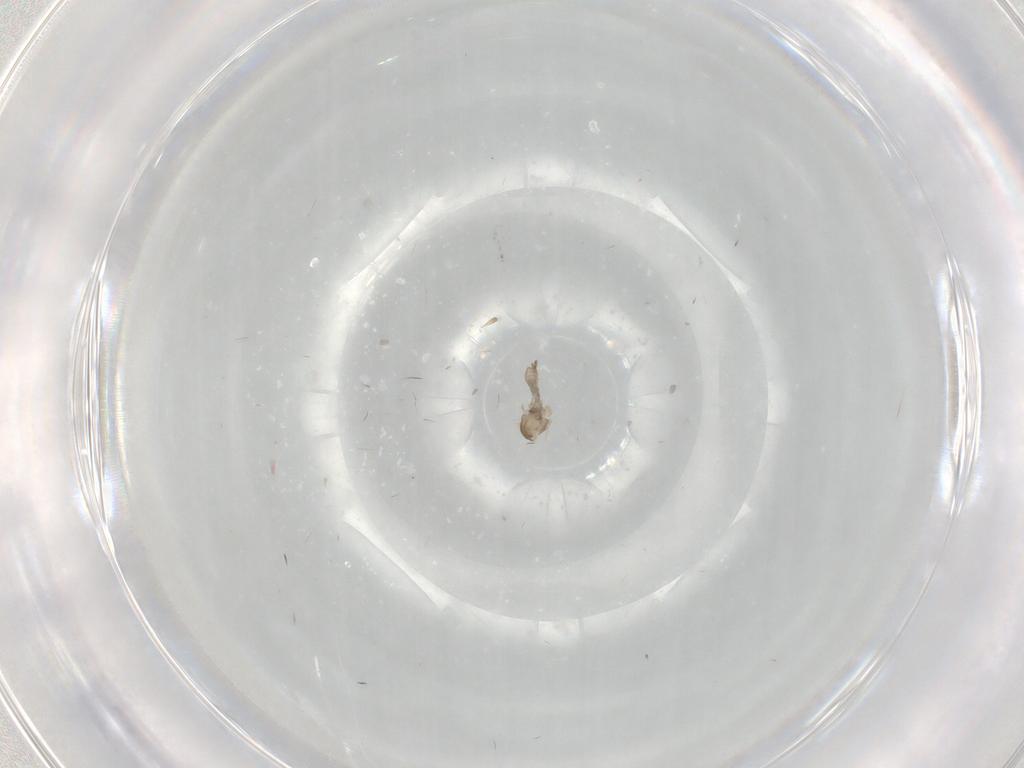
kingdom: Animalia
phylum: Arthropoda
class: Insecta
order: Diptera
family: Cecidomyiidae
